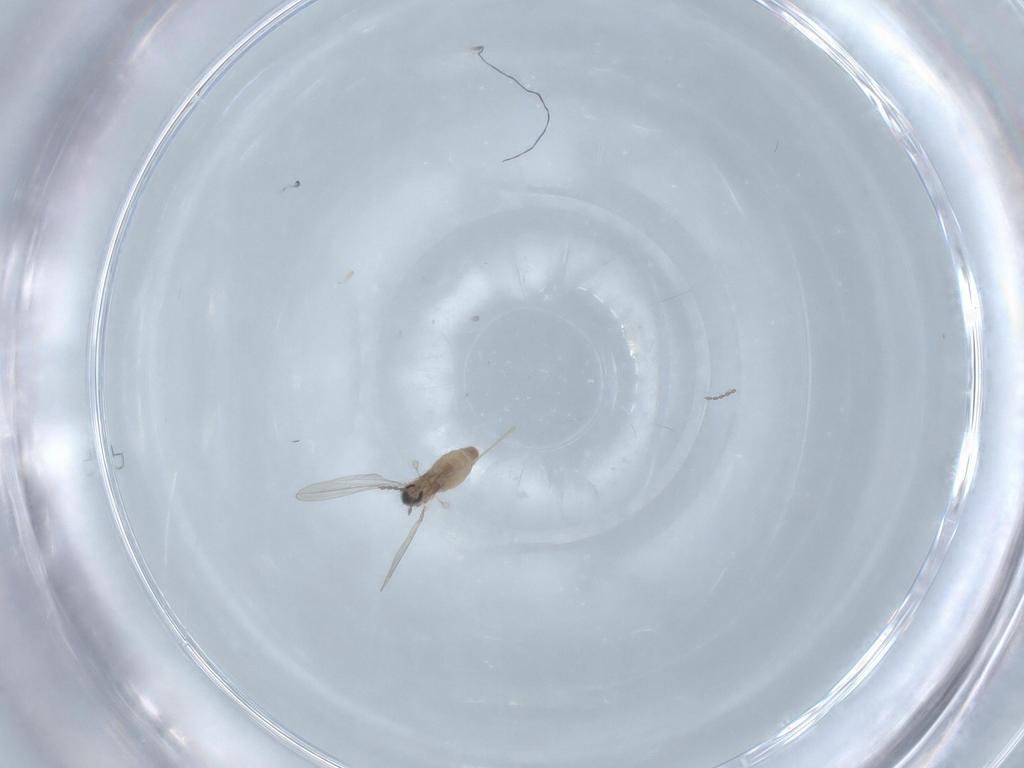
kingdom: Animalia
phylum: Arthropoda
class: Insecta
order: Diptera
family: Cecidomyiidae
